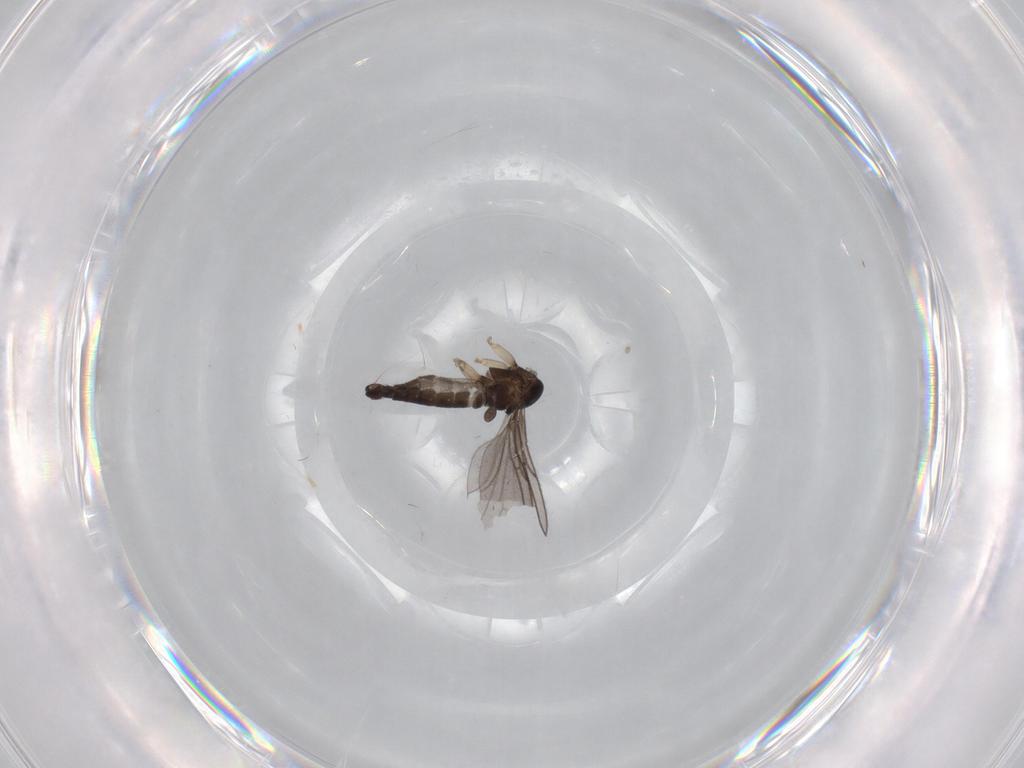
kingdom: Animalia
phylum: Arthropoda
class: Insecta
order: Diptera
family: Sciaridae
